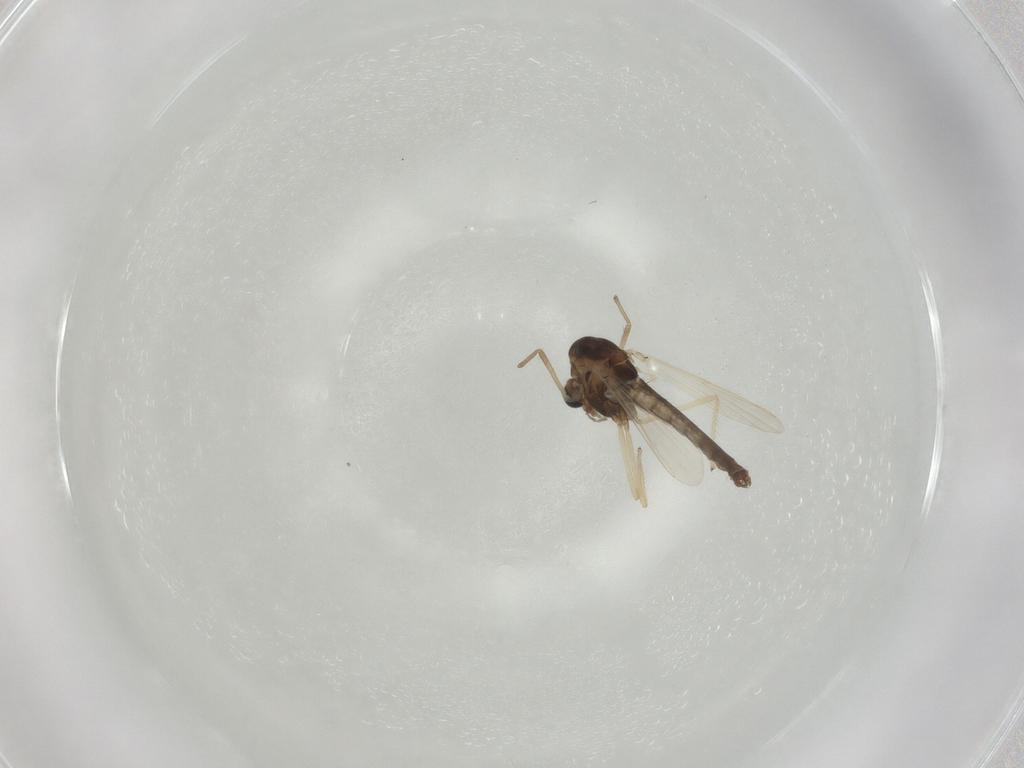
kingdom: Animalia
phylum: Arthropoda
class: Insecta
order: Diptera
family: Chironomidae
